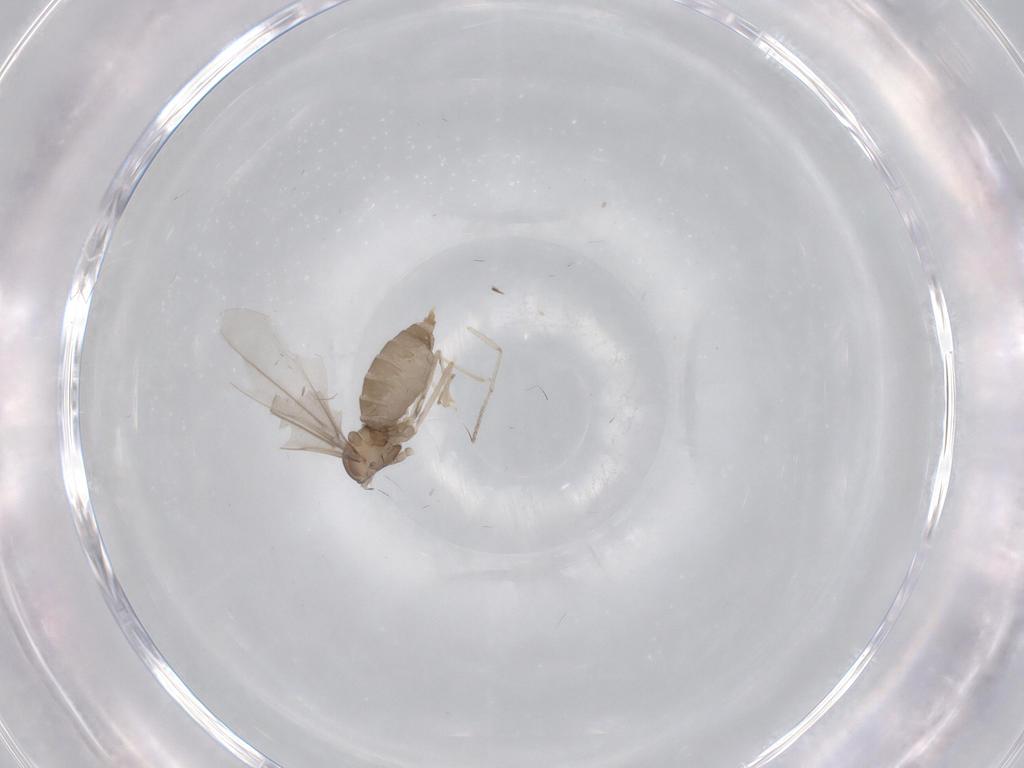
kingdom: Animalia
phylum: Arthropoda
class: Insecta
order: Diptera
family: Cecidomyiidae
